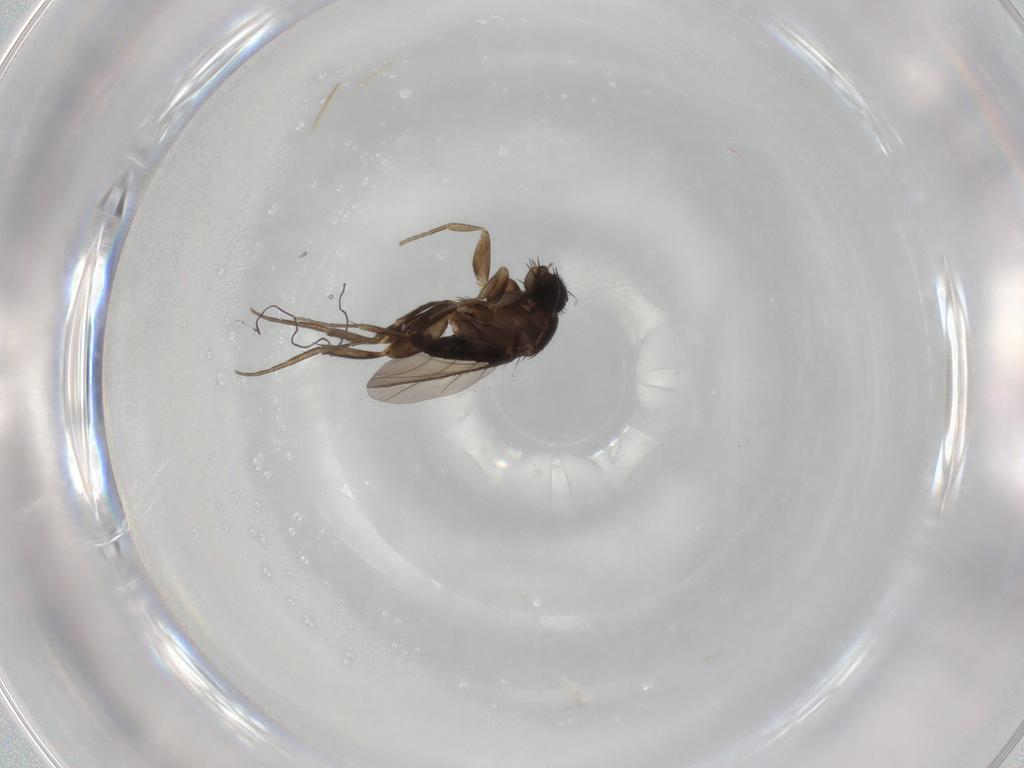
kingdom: Animalia
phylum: Arthropoda
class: Insecta
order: Diptera
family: Phoridae
